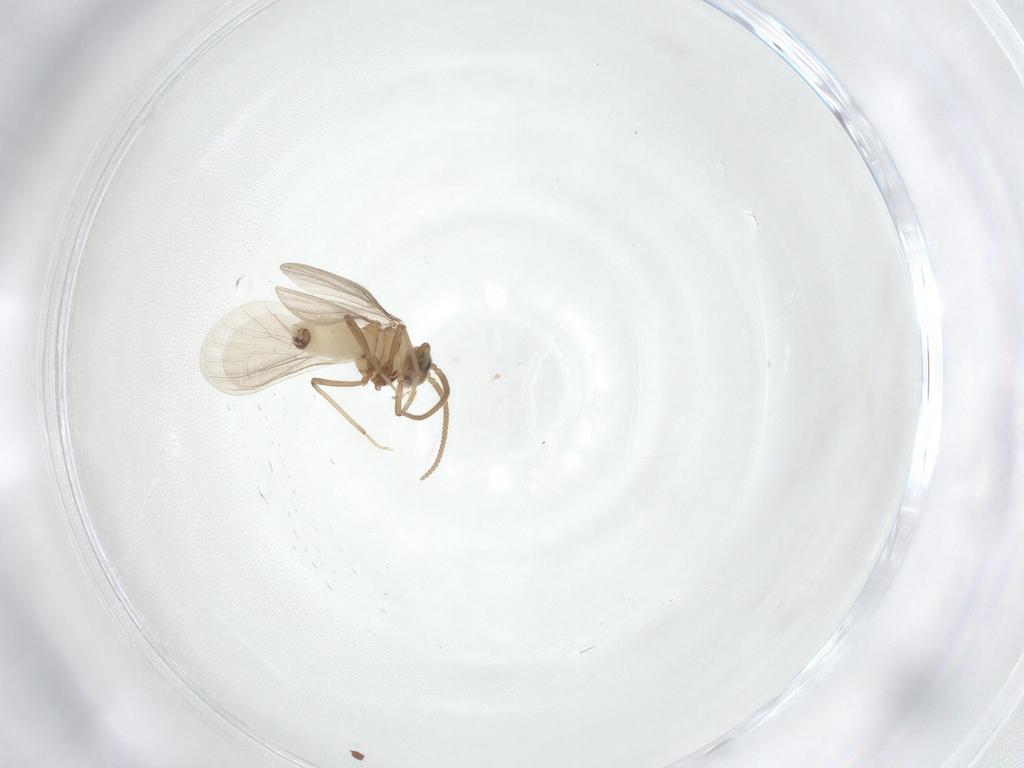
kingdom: Animalia
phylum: Arthropoda
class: Insecta
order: Neuroptera
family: Coniopterygidae
